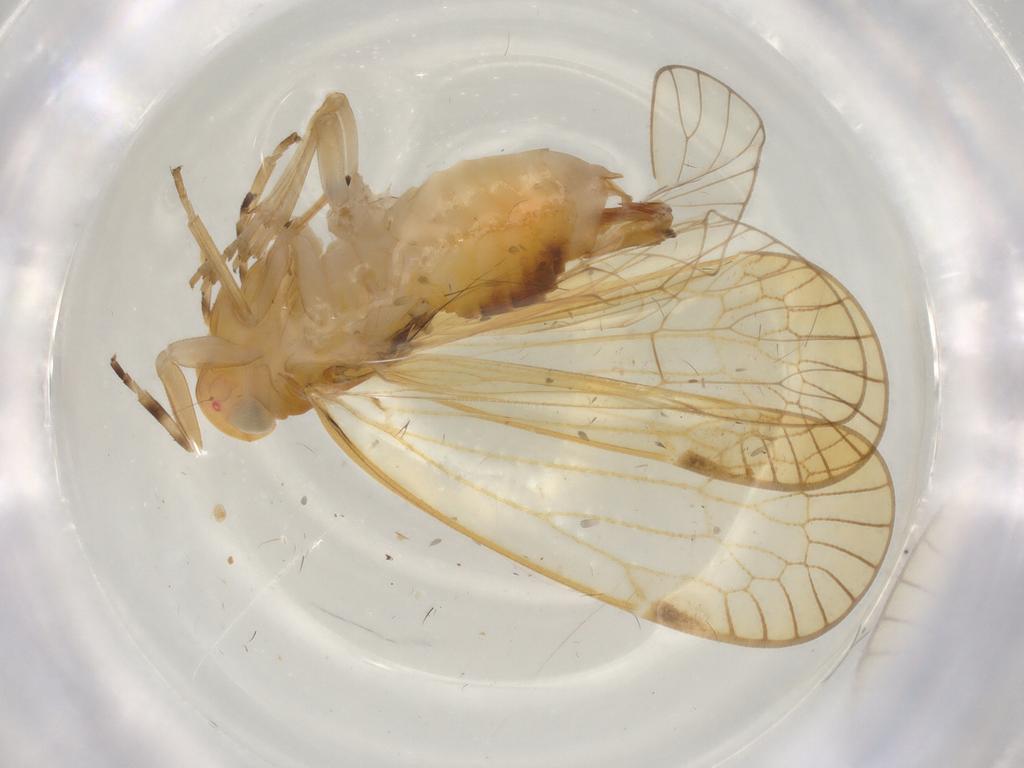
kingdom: Animalia
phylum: Arthropoda
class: Insecta
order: Hemiptera
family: Cixiidae
